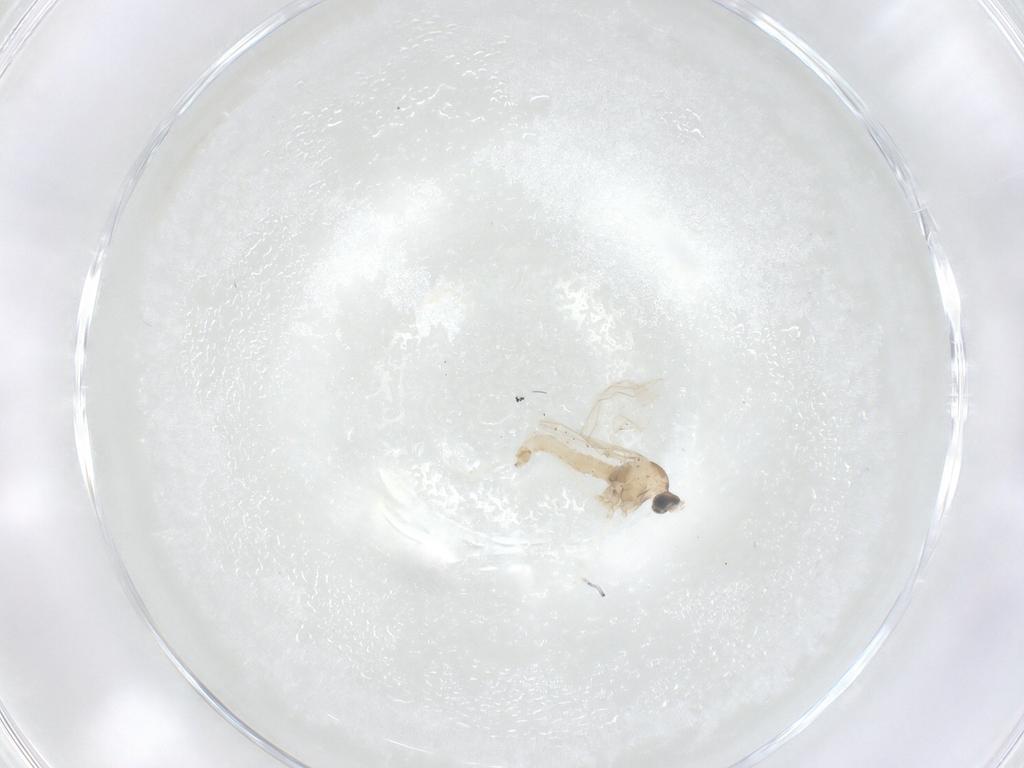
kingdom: Animalia
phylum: Arthropoda
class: Insecta
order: Diptera
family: Cecidomyiidae
